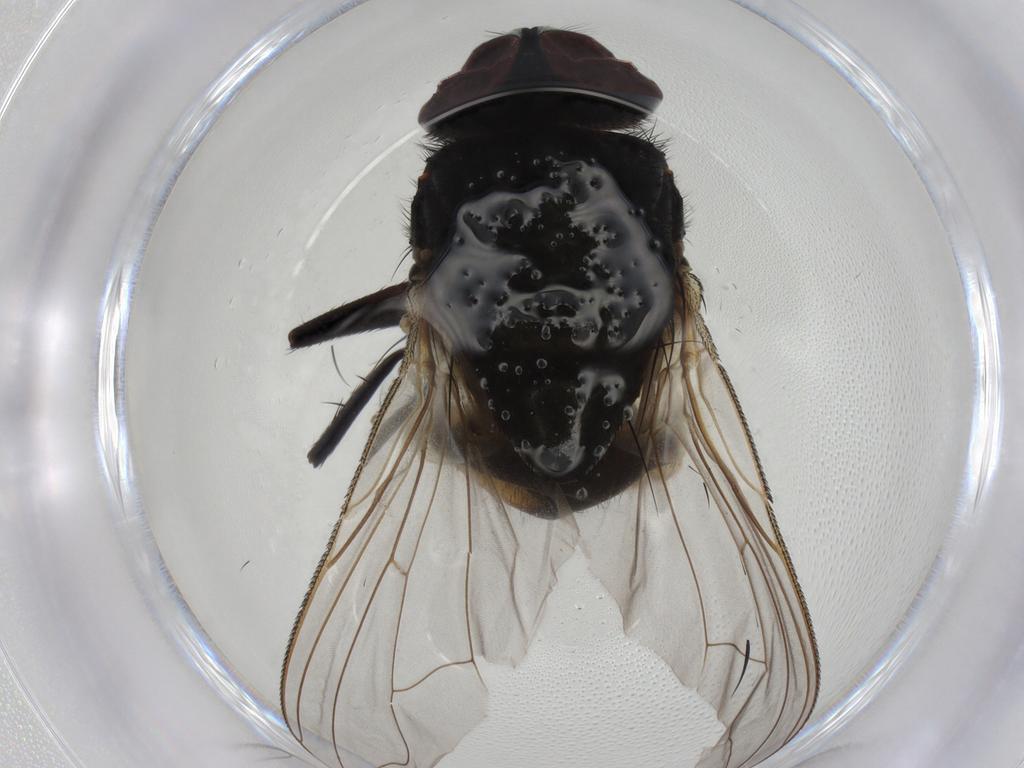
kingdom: Animalia
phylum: Arthropoda
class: Insecta
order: Diptera
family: Muscidae
